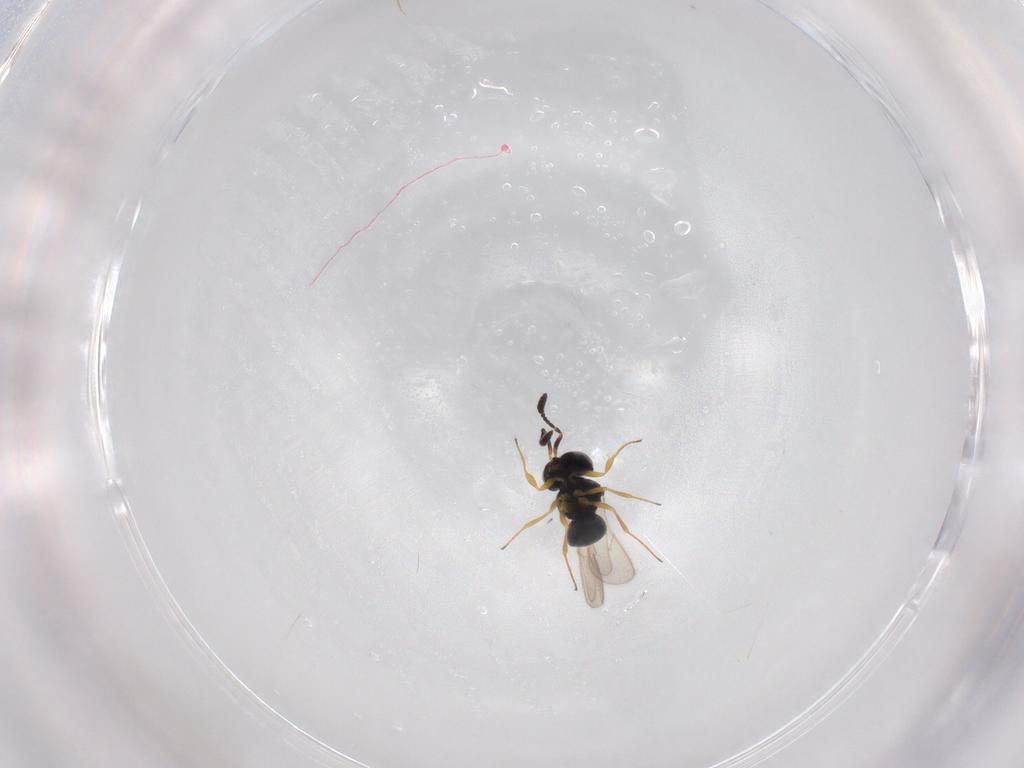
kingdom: Animalia
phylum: Arthropoda
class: Insecta
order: Hymenoptera
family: Scelionidae
